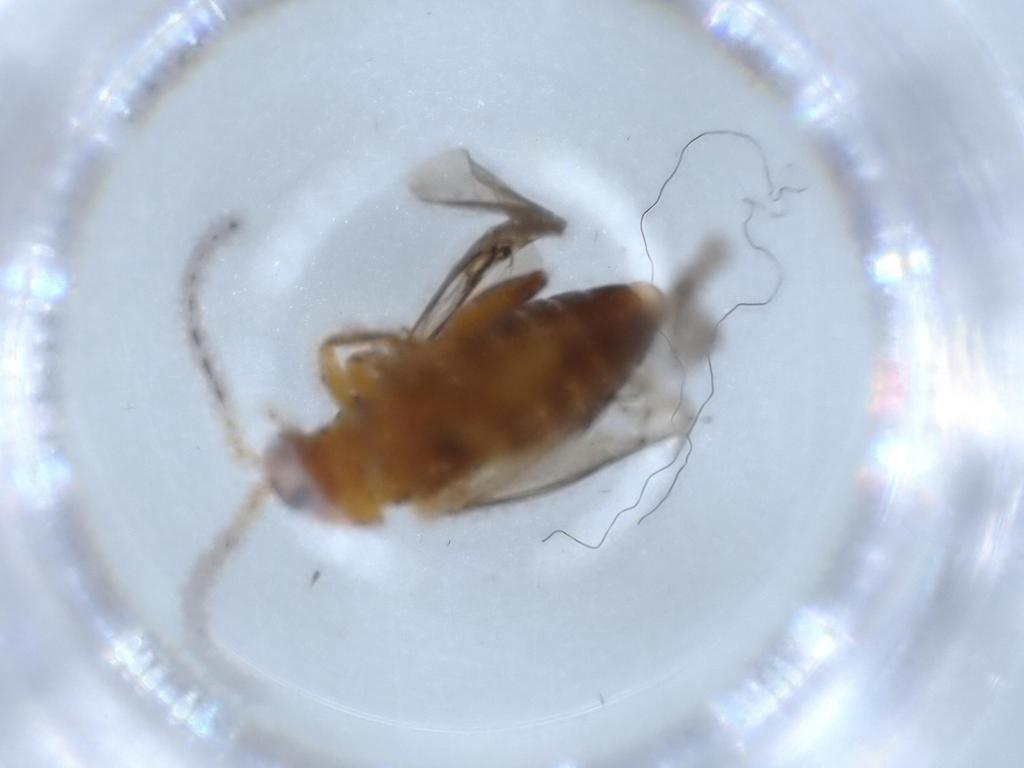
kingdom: Animalia
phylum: Arthropoda
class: Insecta
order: Coleoptera
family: Chrysomelidae
